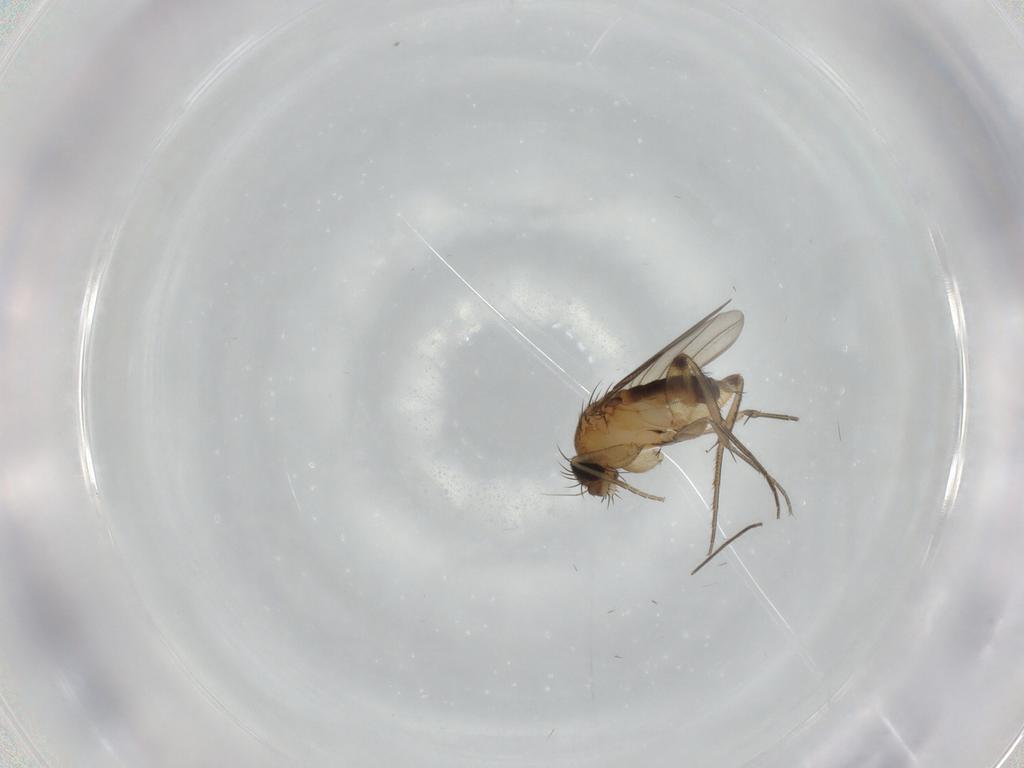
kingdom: Animalia
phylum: Arthropoda
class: Insecta
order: Diptera
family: Phoridae
